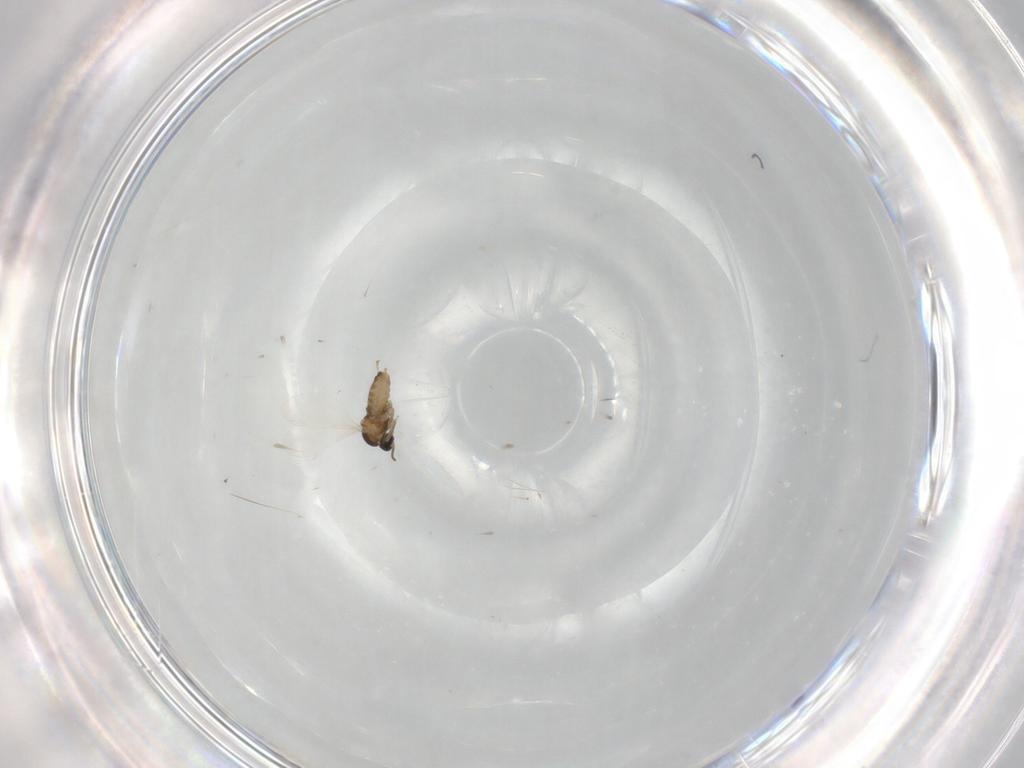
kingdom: Animalia
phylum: Arthropoda
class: Insecta
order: Diptera
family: Cecidomyiidae
